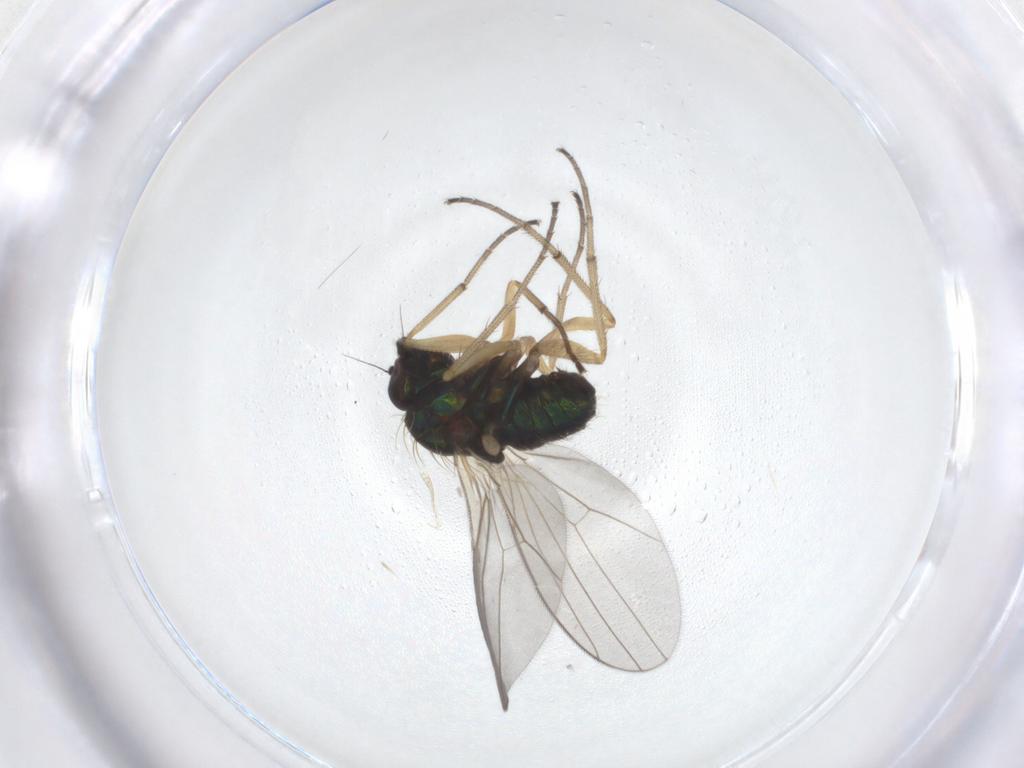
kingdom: Animalia
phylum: Arthropoda
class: Insecta
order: Diptera
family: Dolichopodidae
